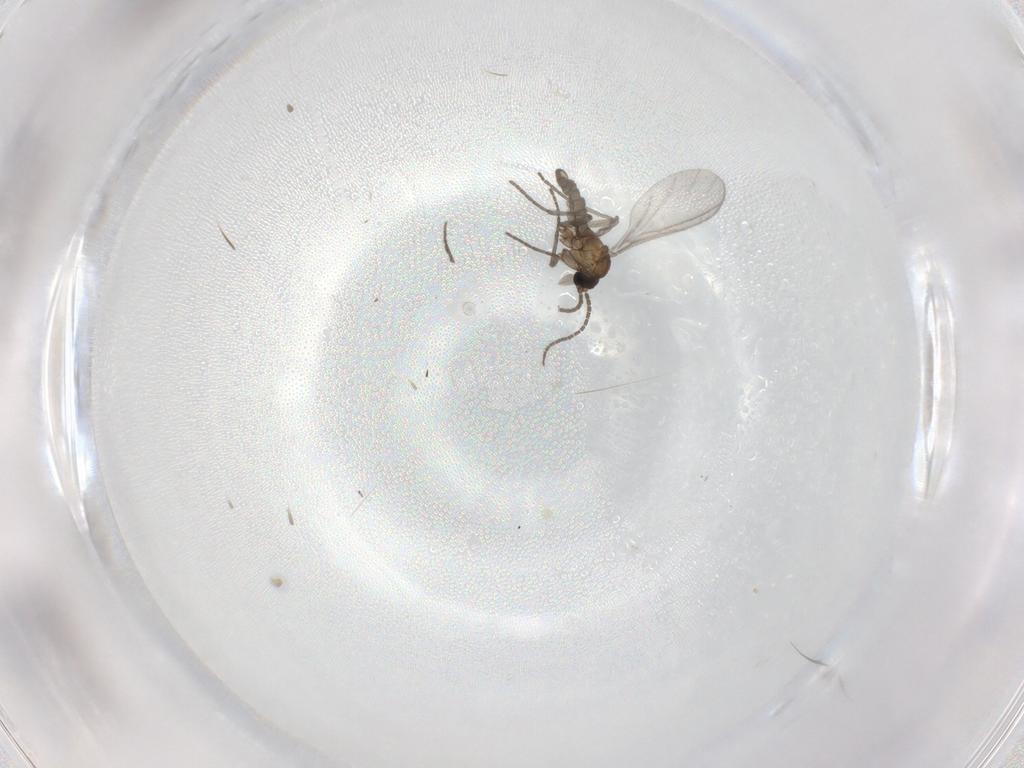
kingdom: Animalia
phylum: Arthropoda
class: Insecta
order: Diptera
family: Sciaridae
